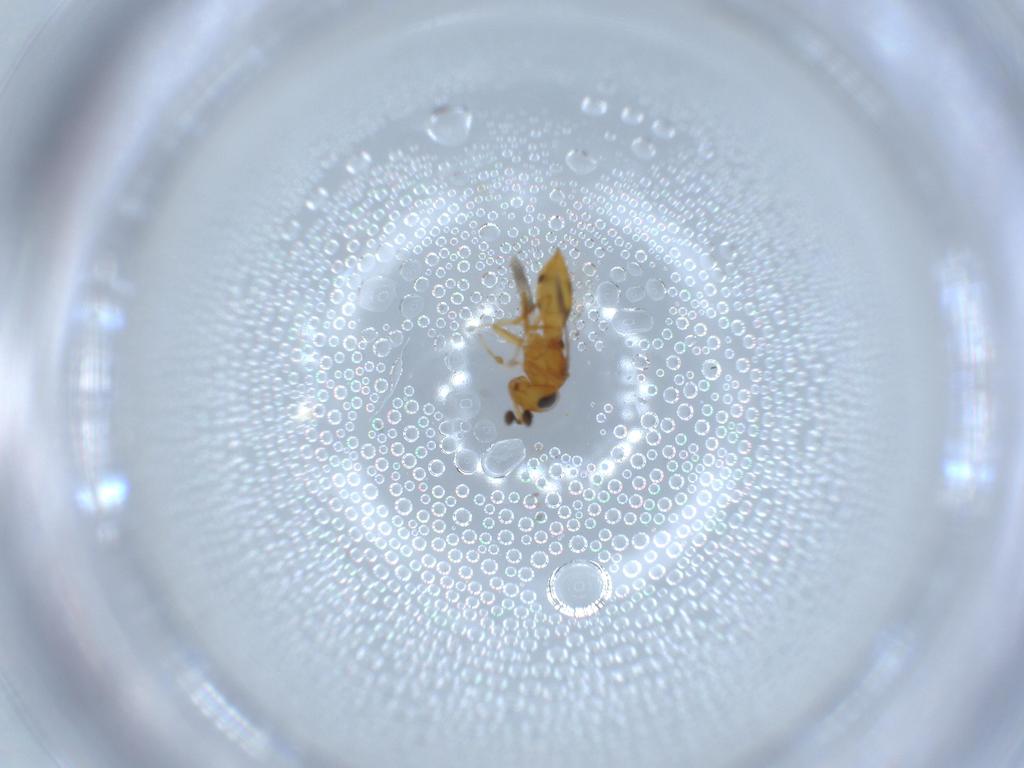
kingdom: Animalia
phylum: Arthropoda
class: Insecta
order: Hymenoptera
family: Scelionidae
